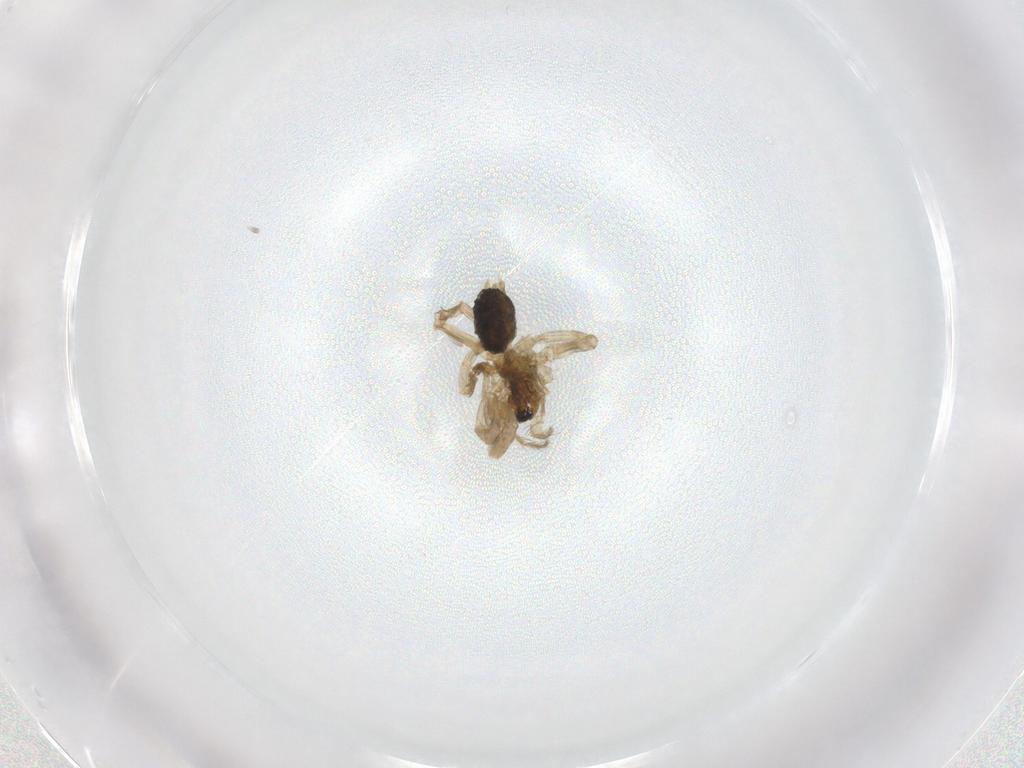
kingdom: Animalia
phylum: Arthropoda
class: Arachnida
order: Araneae
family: Hahniidae
